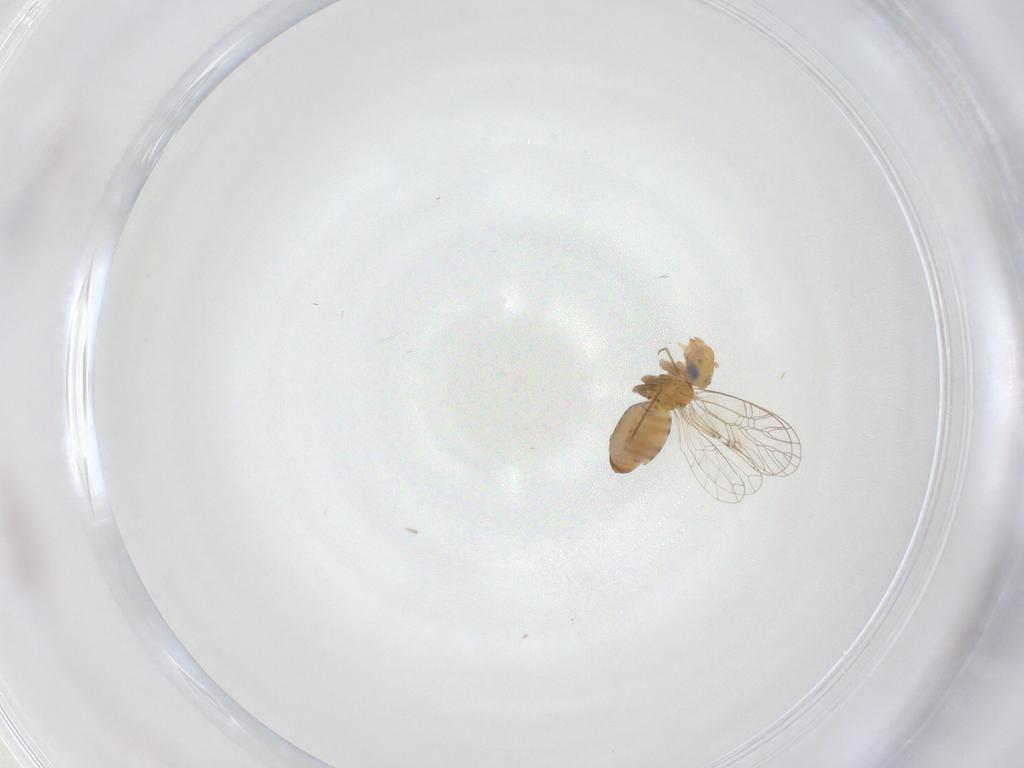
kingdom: Animalia
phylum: Arthropoda
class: Insecta
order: Psocodea
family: Prionoglarididae
